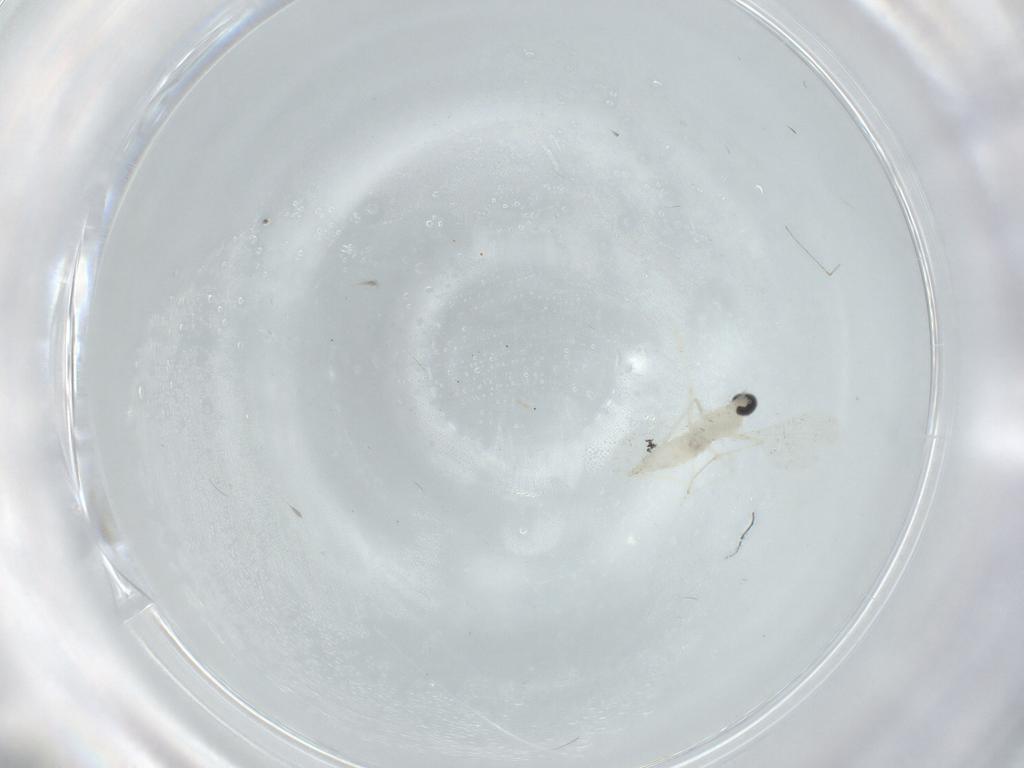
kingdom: Animalia
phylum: Arthropoda
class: Insecta
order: Diptera
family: Cecidomyiidae
